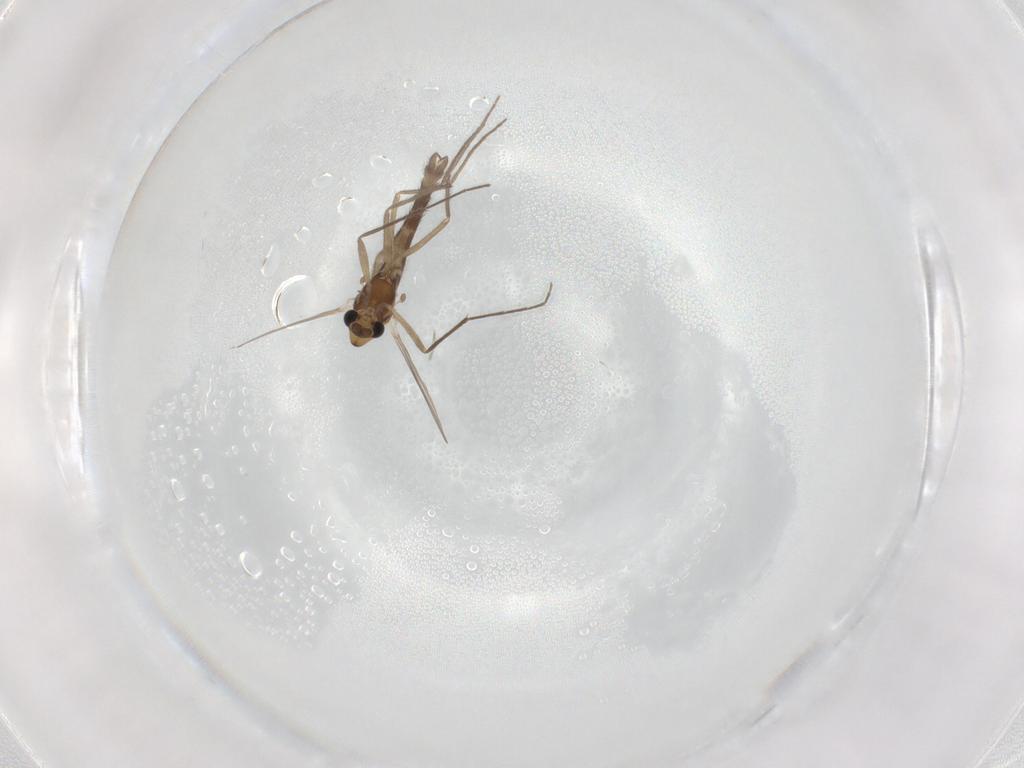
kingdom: Animalia
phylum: Arthropoda
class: Insecta
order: Diptera
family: Chironomidae
